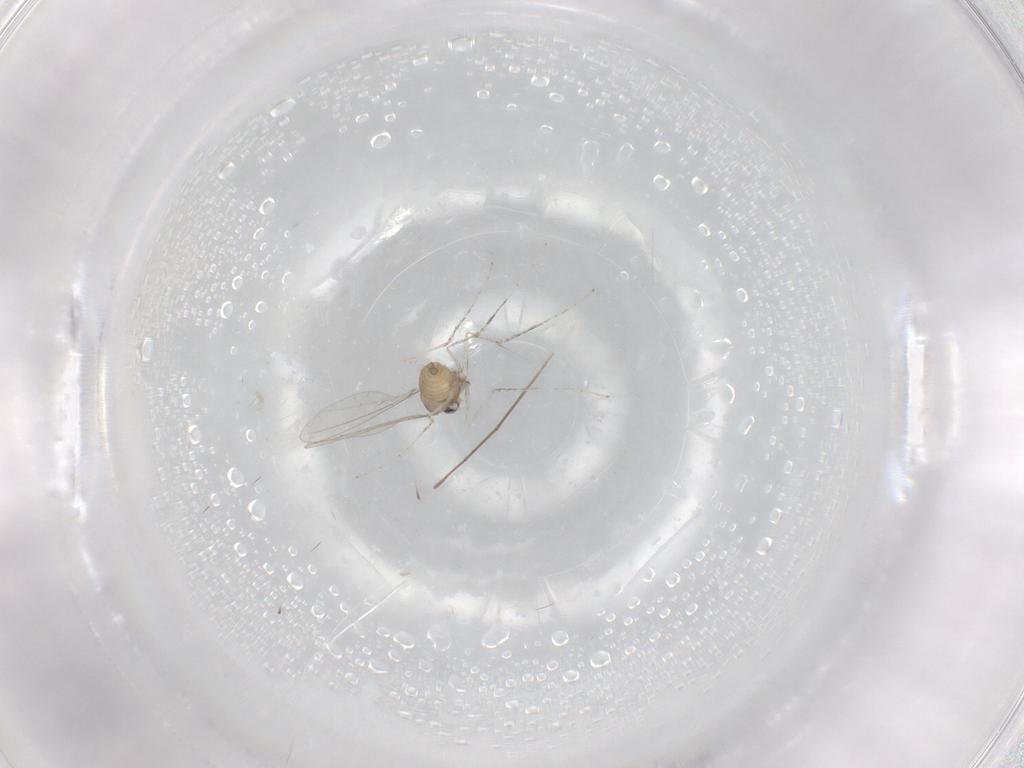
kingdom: Animalia
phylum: Arthropoda
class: Insecta
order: Diptera
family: Cecidomyiidae
